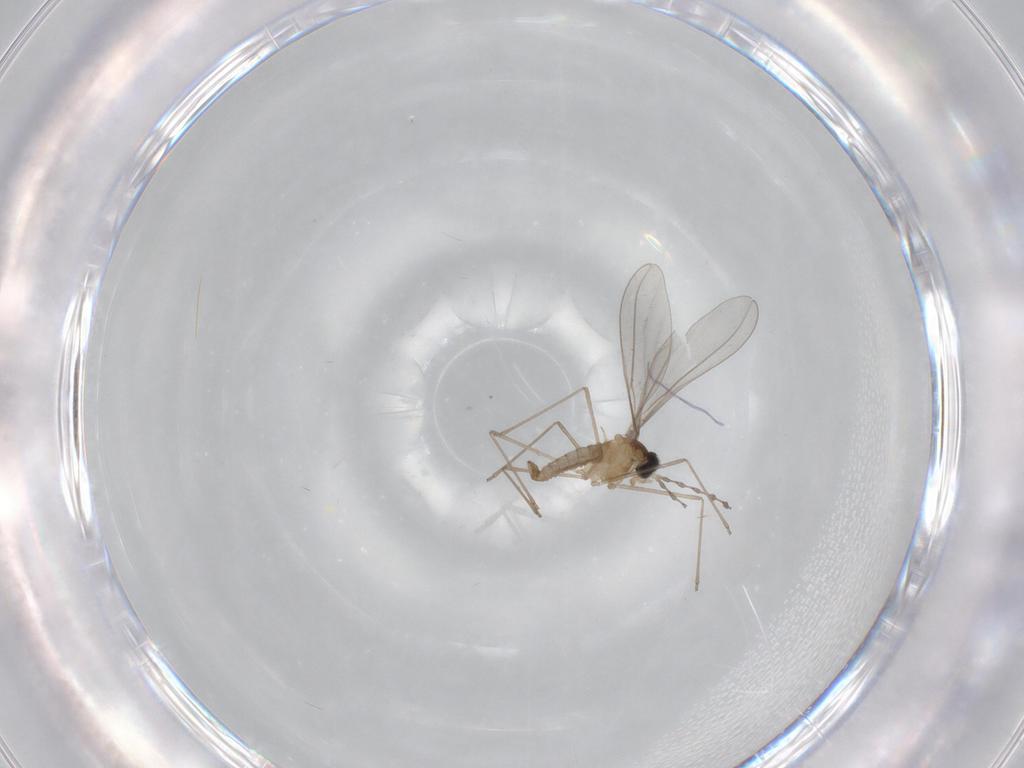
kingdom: Animalia
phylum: Arthropoda
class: Insecta
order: Diptera
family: Cecidomyiidae
